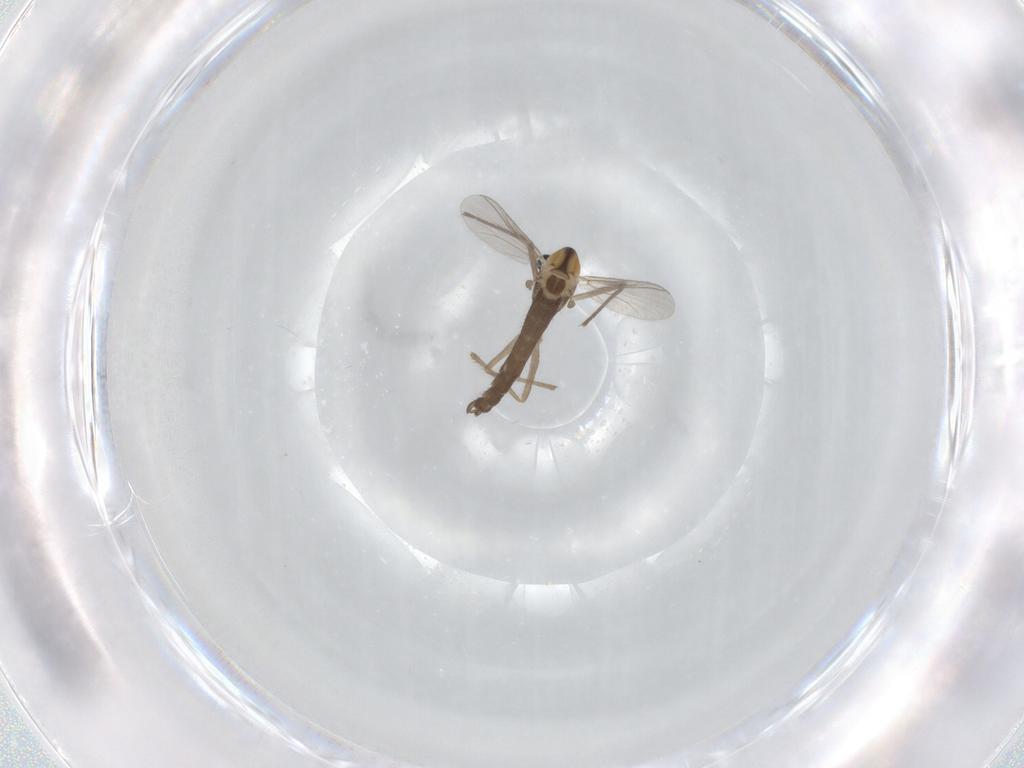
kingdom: Animalia
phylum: Arthropoda
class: Insecta
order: Diptera
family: Chironomidae
